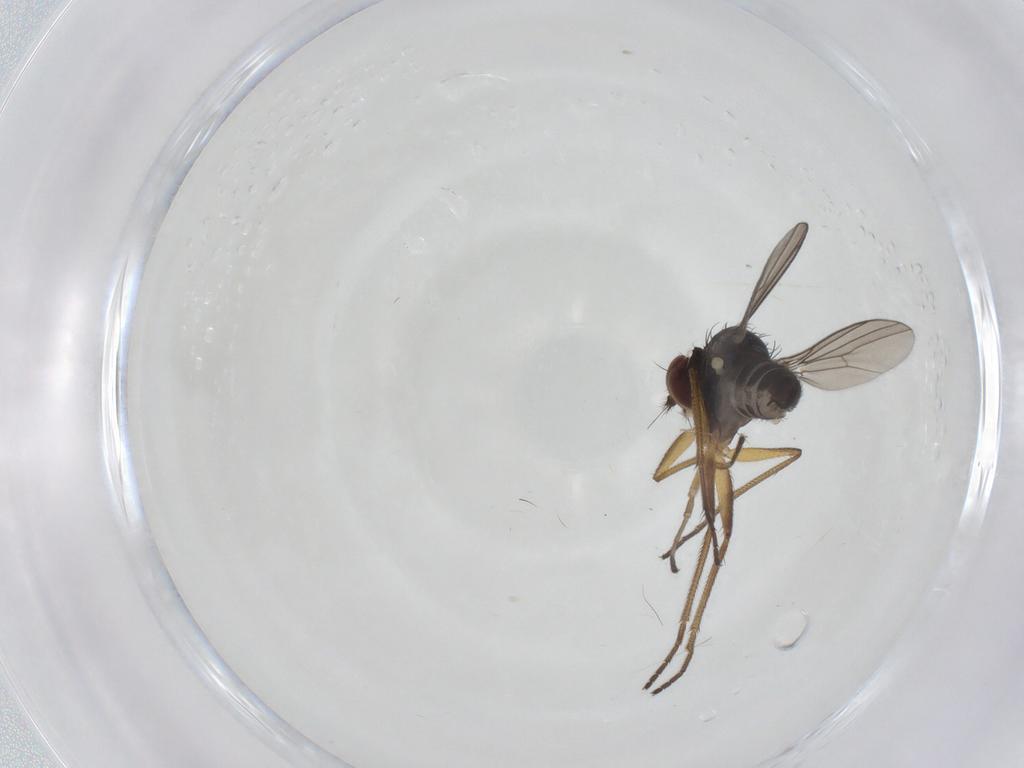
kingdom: Animalia
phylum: Arthropoda
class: Insecta
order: Diptera
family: Dolichopodidae
